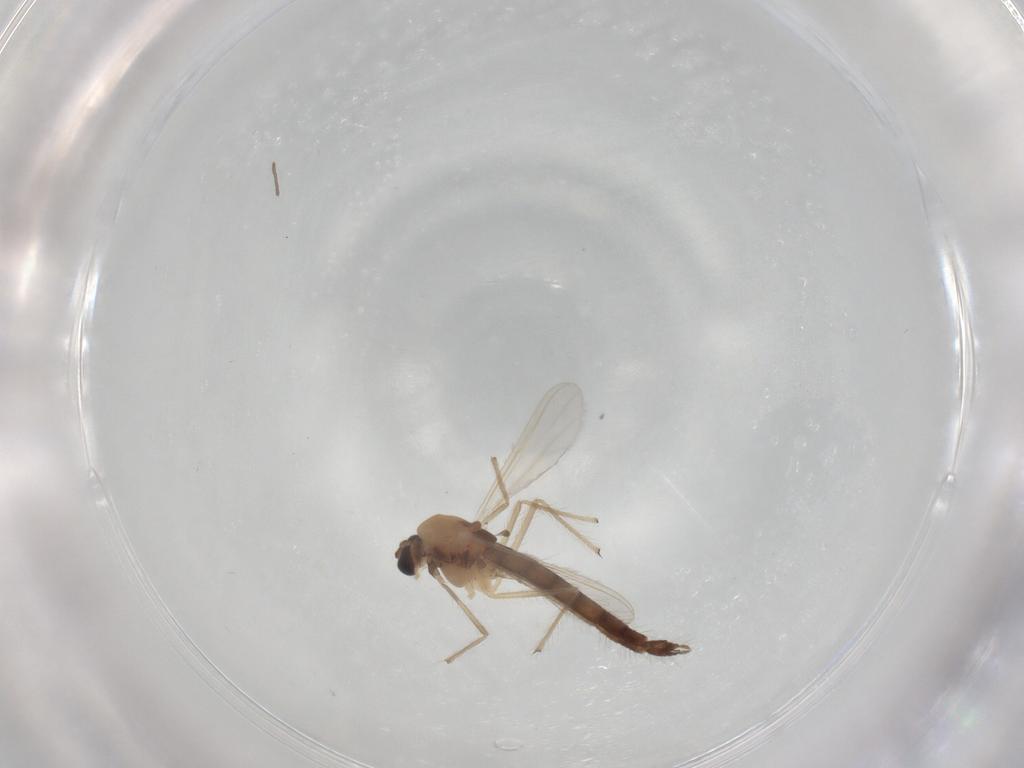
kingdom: Animalia
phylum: Arthropoda
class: Insecta
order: Diptera
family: Chironomidae
